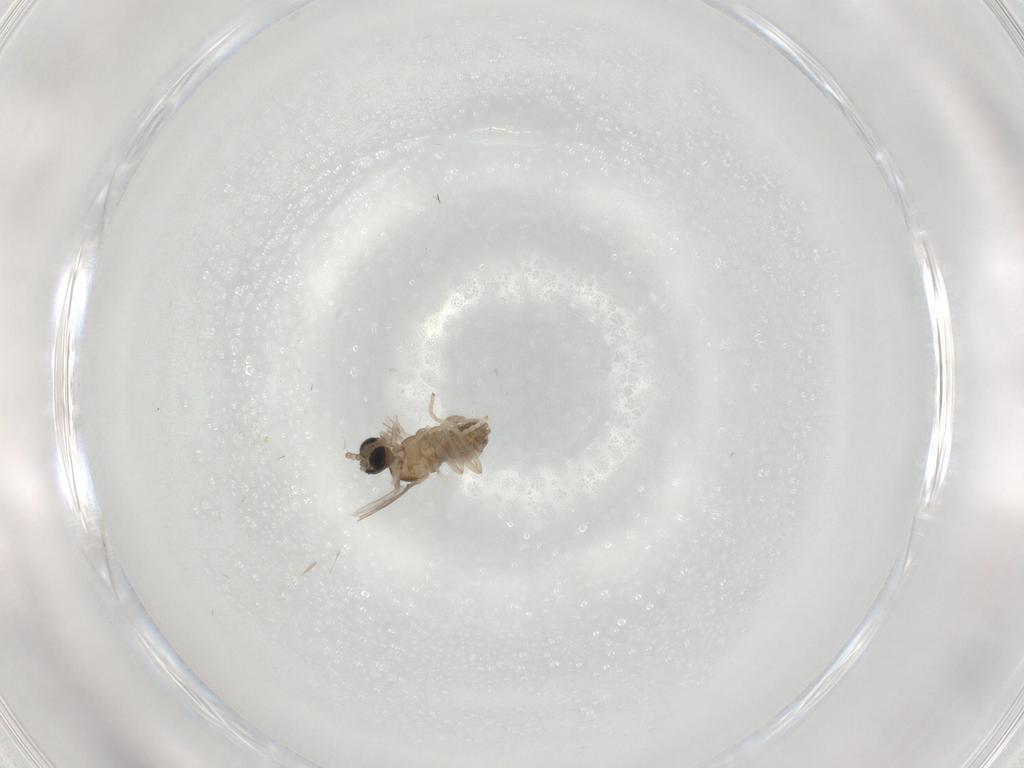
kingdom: Animalia
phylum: Arthropoda
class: Insecta
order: Diptera
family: Cecidomyiidae
